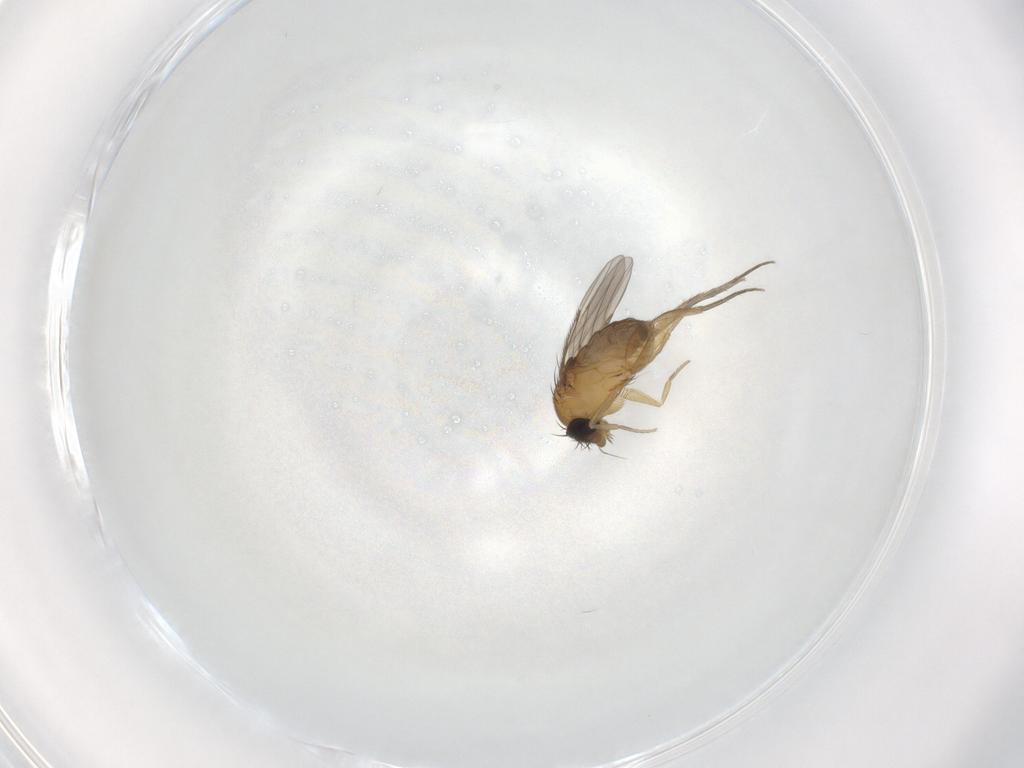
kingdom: Animalia
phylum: Arthropoda
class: Insecta
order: Diptera
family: Phoridae
